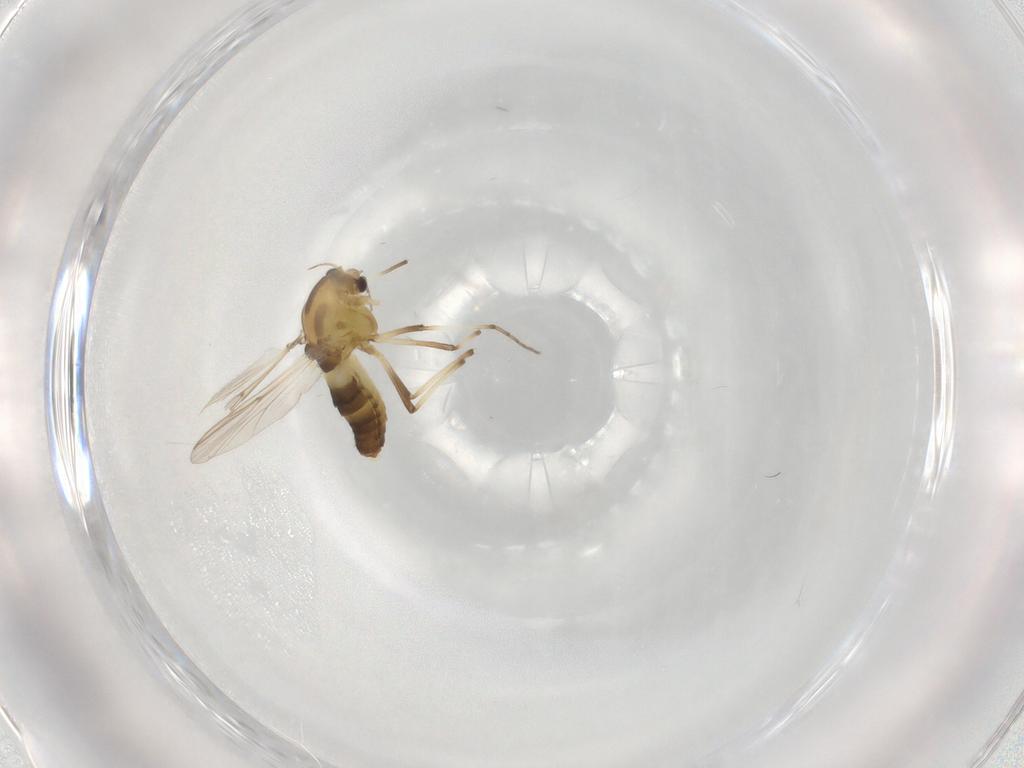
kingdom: Animalia
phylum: Arthropoda
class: Insecta
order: Diptera
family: Chironomidae
